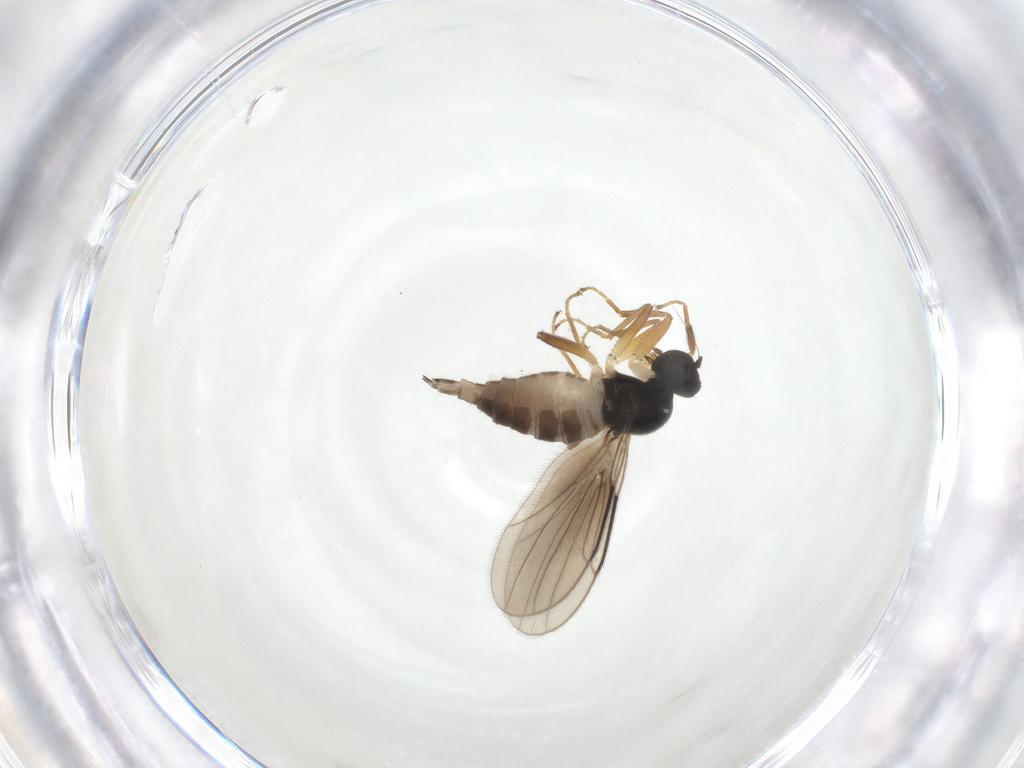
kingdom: Animalia
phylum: Arthropoda
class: Insecta
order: Diptera
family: Hybotidae
